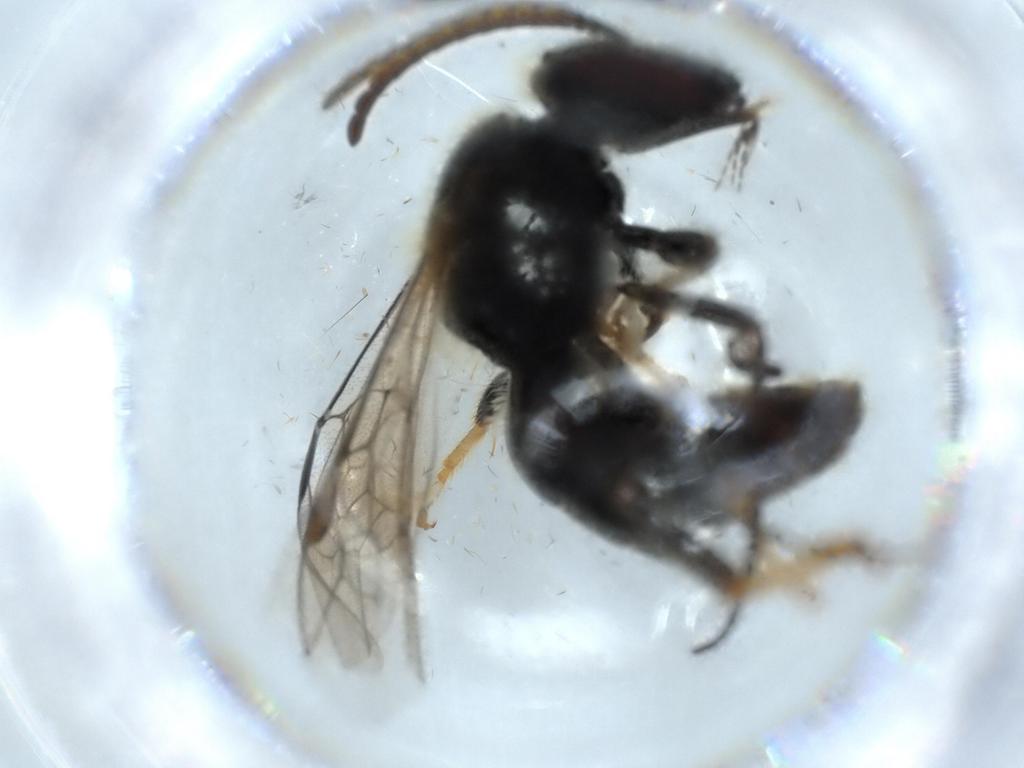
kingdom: Animalia
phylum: Arthropoda
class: Insecta
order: Hymenoptera
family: Halictidae
